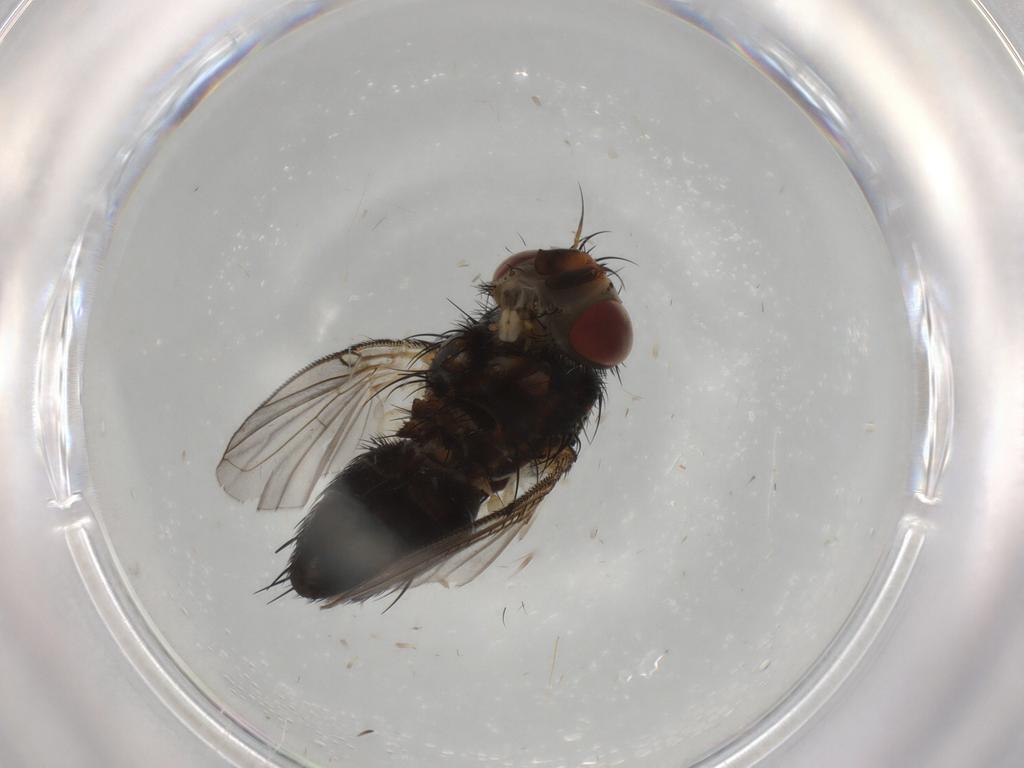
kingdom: Animalia
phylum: Arthropoda
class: Insecta
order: Diptera
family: Tachinidae
